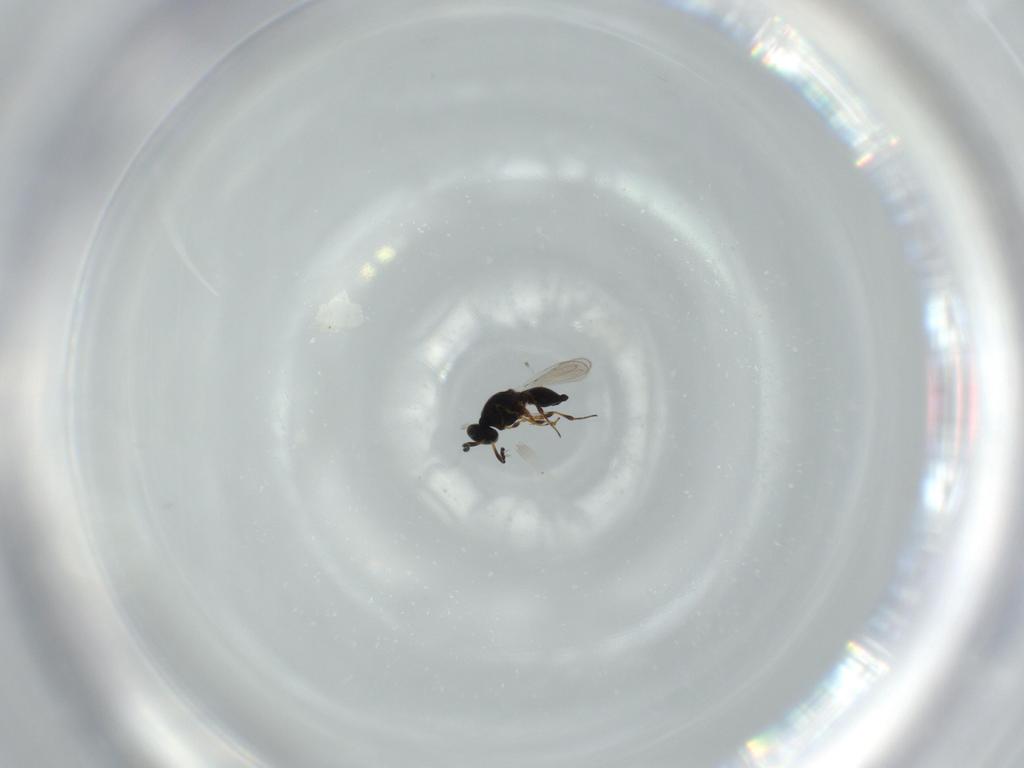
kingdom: Animalia
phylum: Arthropoda
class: Insecta
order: Hymenoptera
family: Platygastridae
